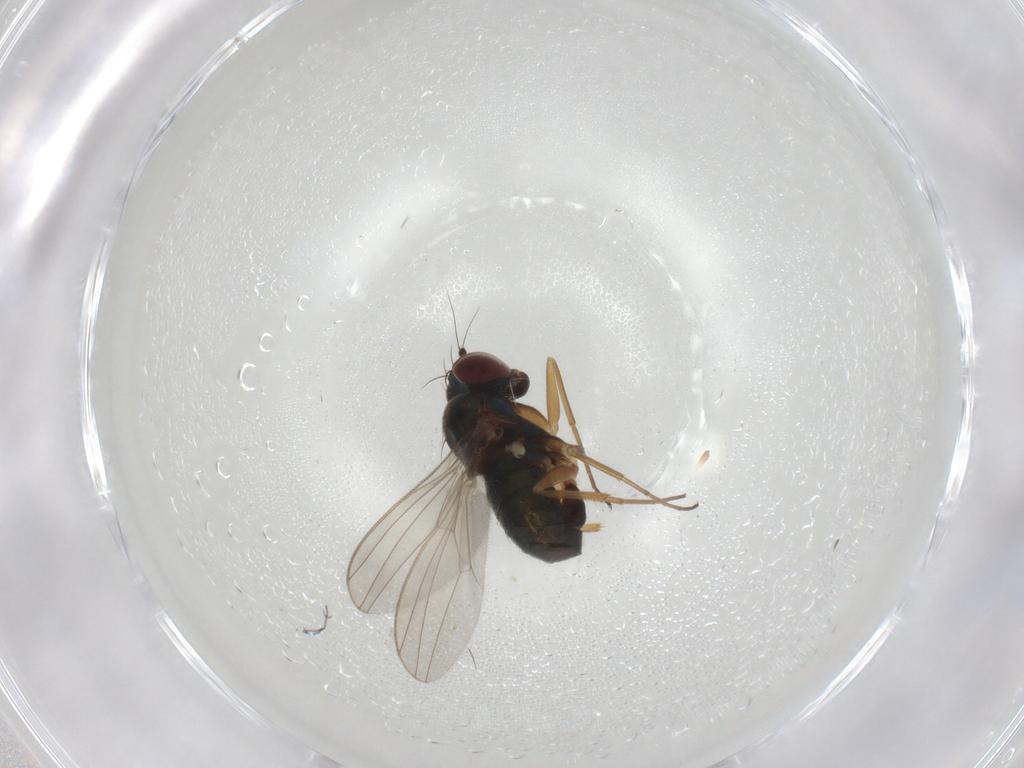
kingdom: Animalia
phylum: Arthropoda
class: Insecta
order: Diptera
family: Dolichopodidae
